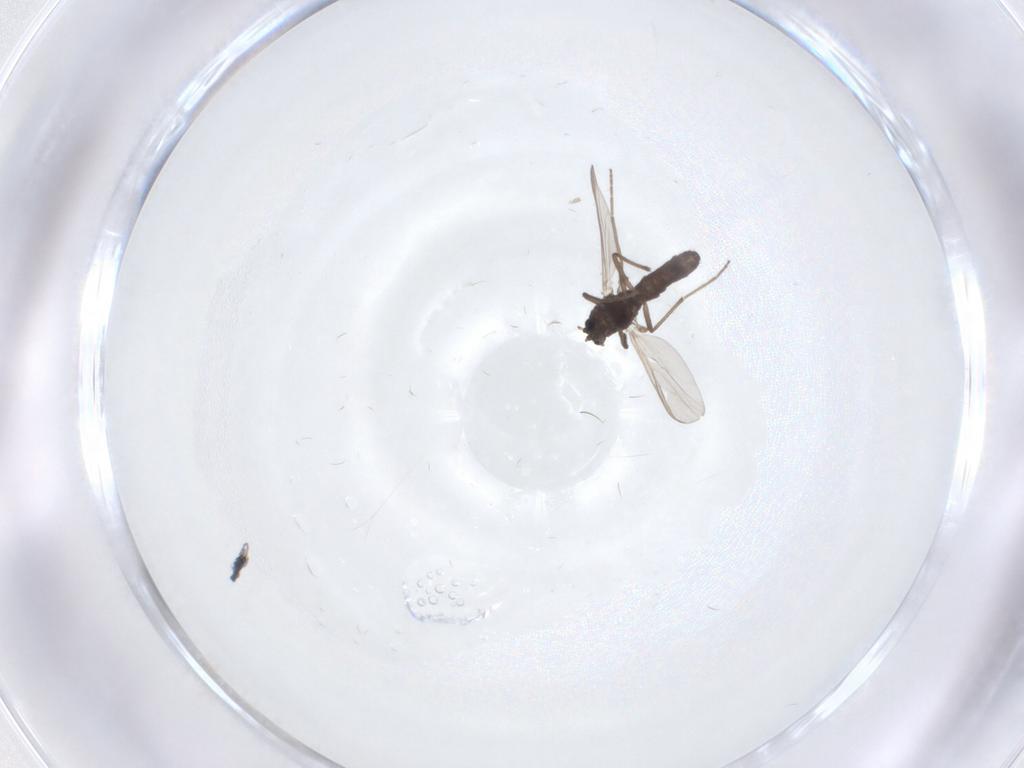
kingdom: Animalia
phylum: Arthropoda
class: Insecta
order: Diptera
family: Chironomidae
